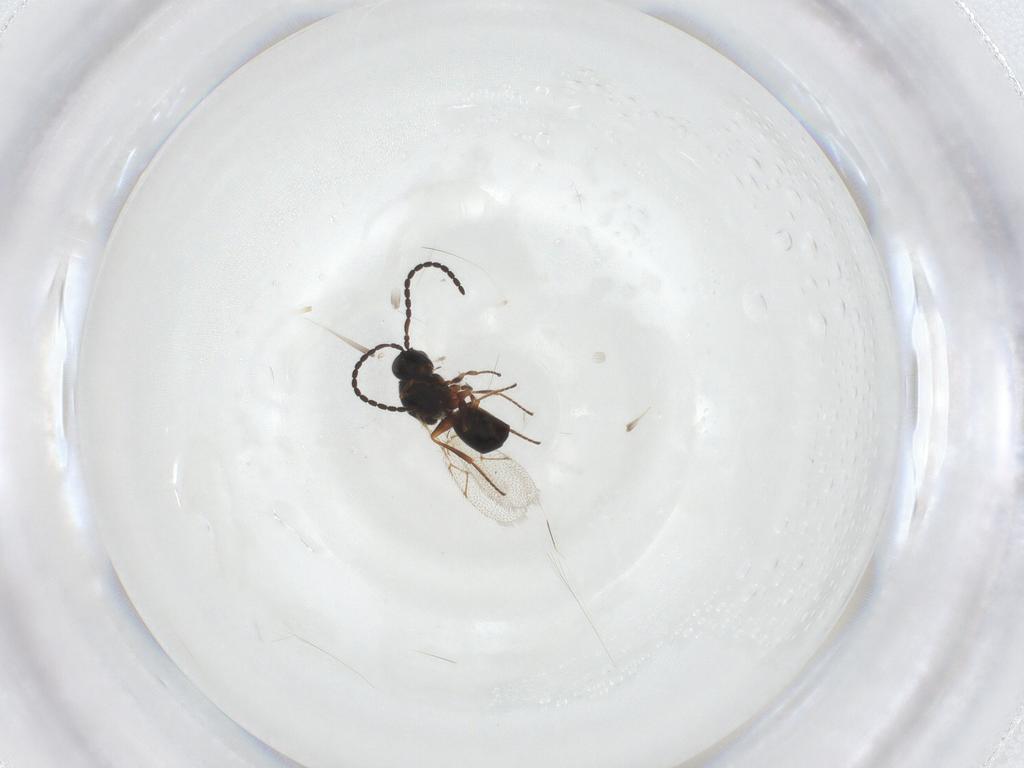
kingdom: Animalia
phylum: Arthropoda
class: Insecta
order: Hymenoptera
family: Figitidae
